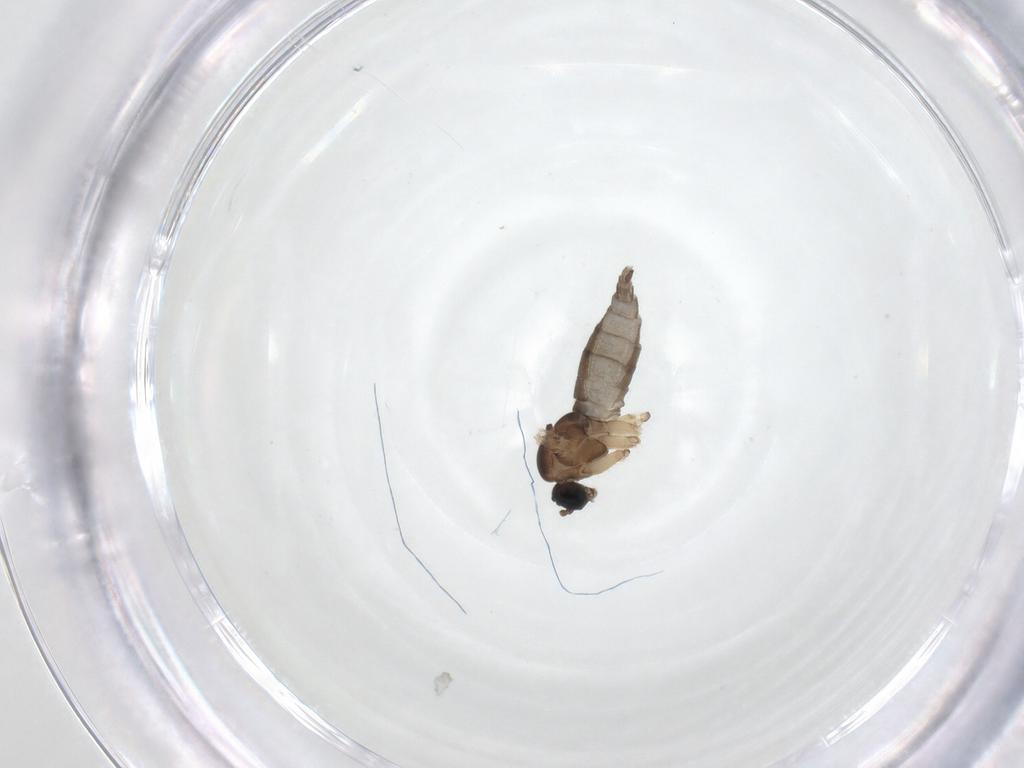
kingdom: Animalia
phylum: Arthropoda
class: Insecta
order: Diptera
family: Sciaridae
